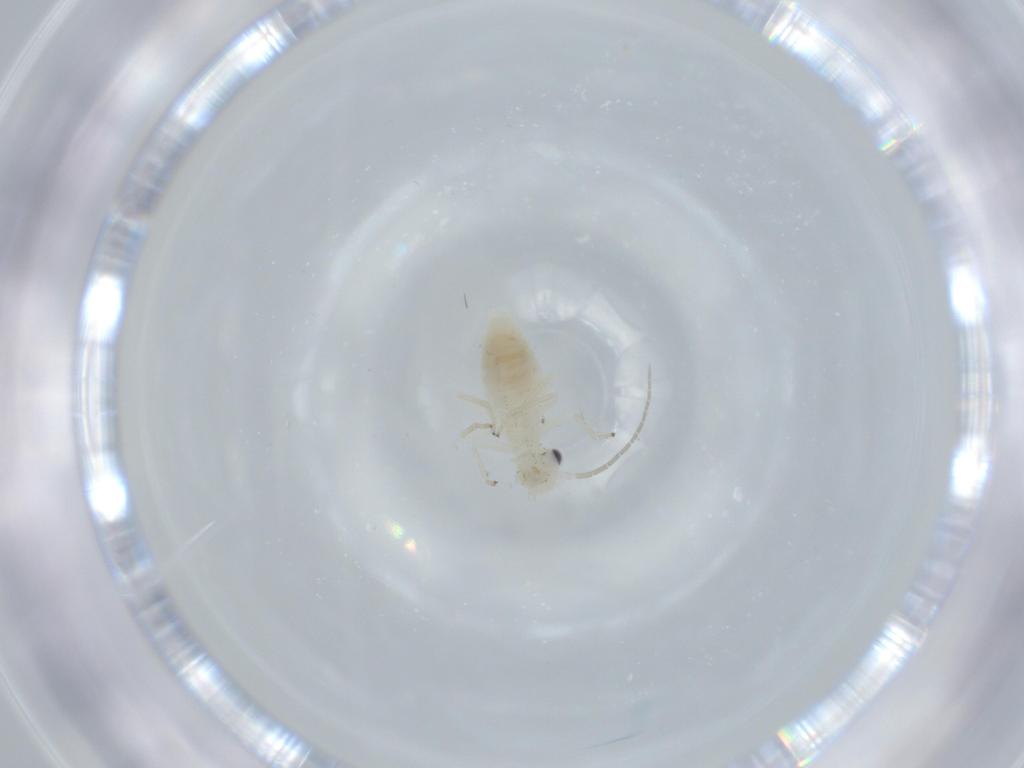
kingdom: Animalia
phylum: Arthropoda
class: Insecta
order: Psocodea
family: Caeciliusidae
